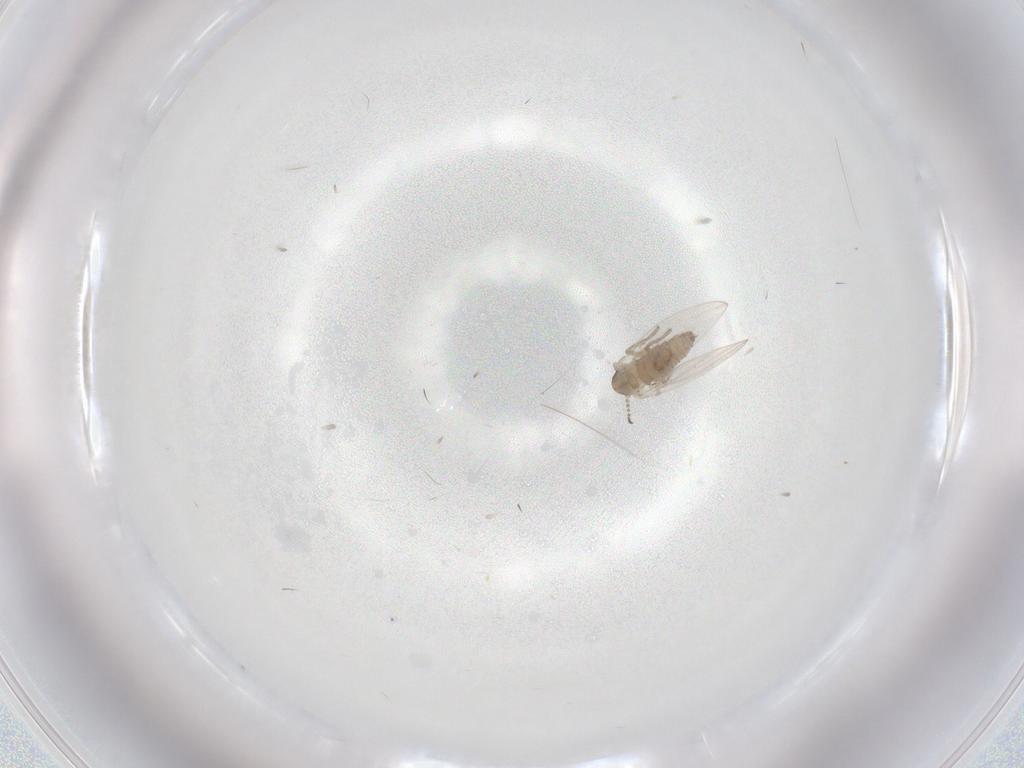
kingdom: Animalia
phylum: Arthropoda
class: Insecta
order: Diptera
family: Psychodidae
